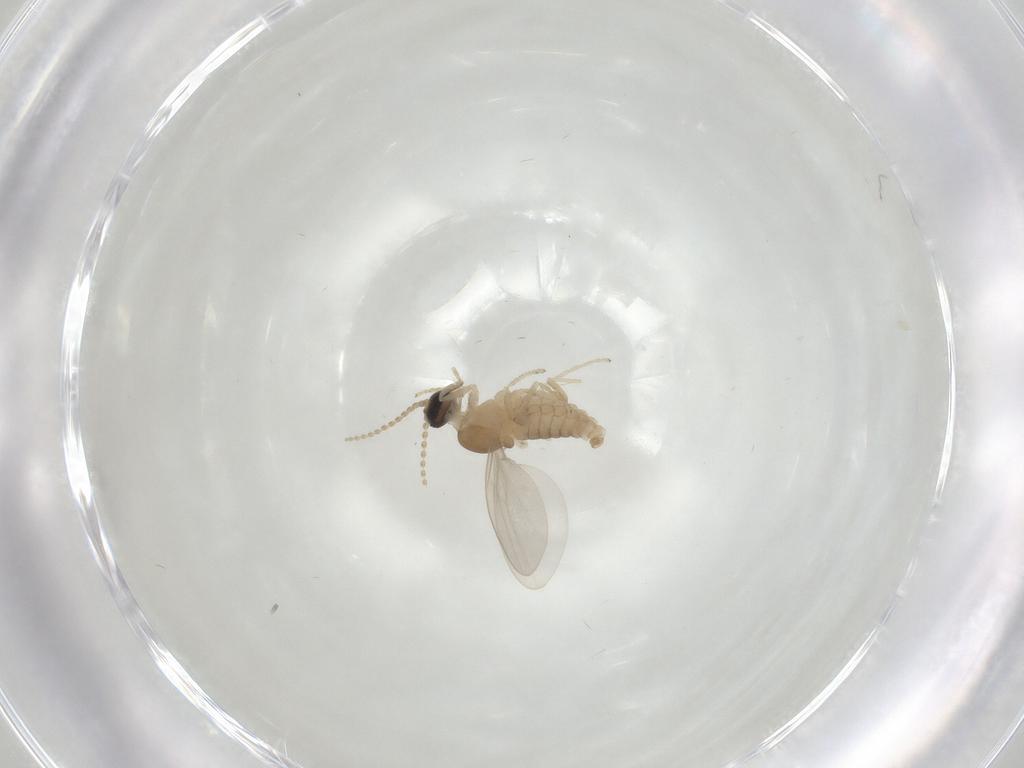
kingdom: Animalia
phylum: Arthropoda
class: Insecta
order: Diptera
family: Cecidomyiidae
